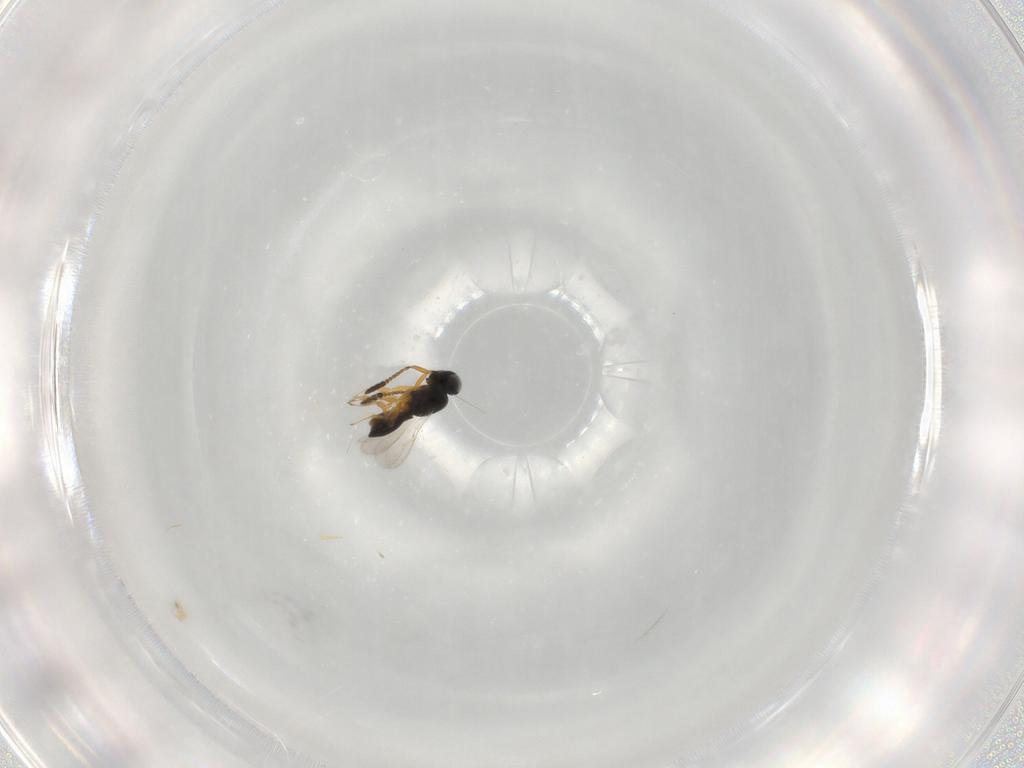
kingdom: Animalia
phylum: Arthropoda
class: Insecta
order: Hymenoptera
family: Scelionidae
